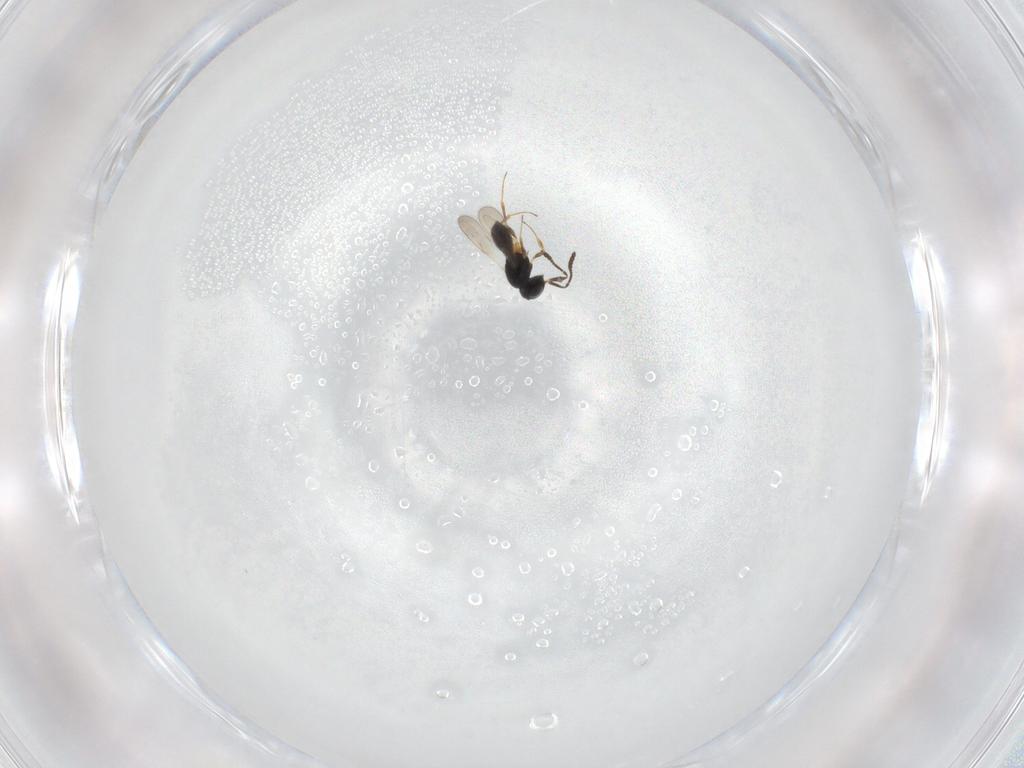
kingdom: Animalia
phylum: Arthropoda
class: Insecta
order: Hymenoptera
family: Scelionidae
